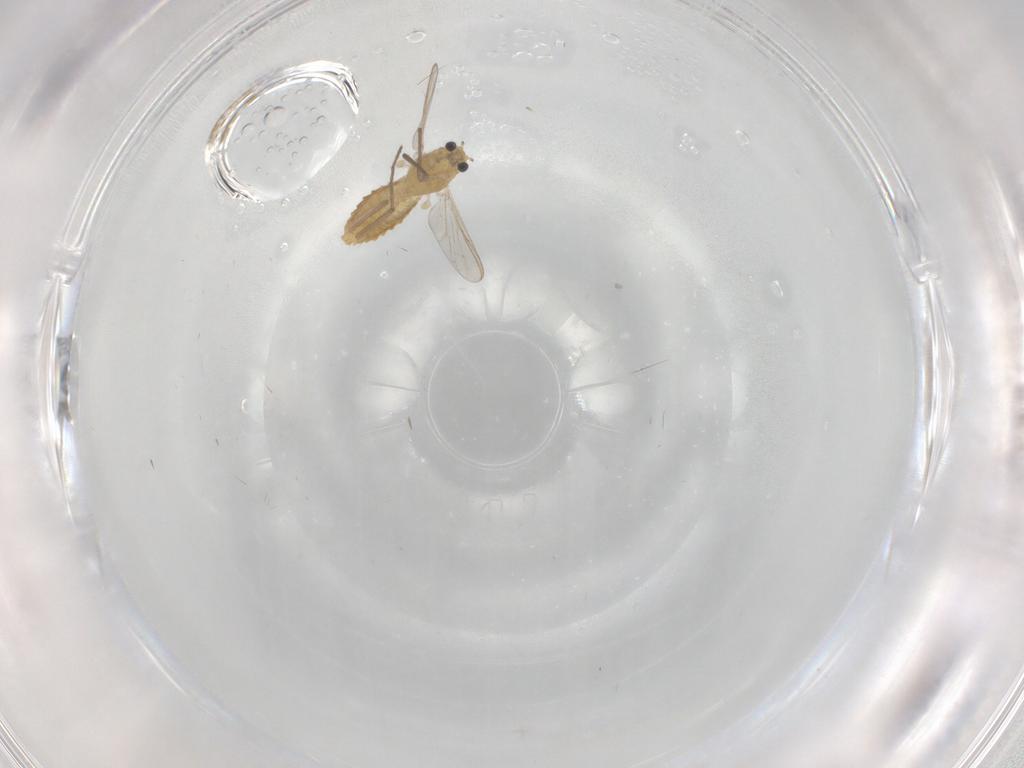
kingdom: Animalia
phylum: Arthropoda
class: Insecta
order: Diptera
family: Chironomidae
